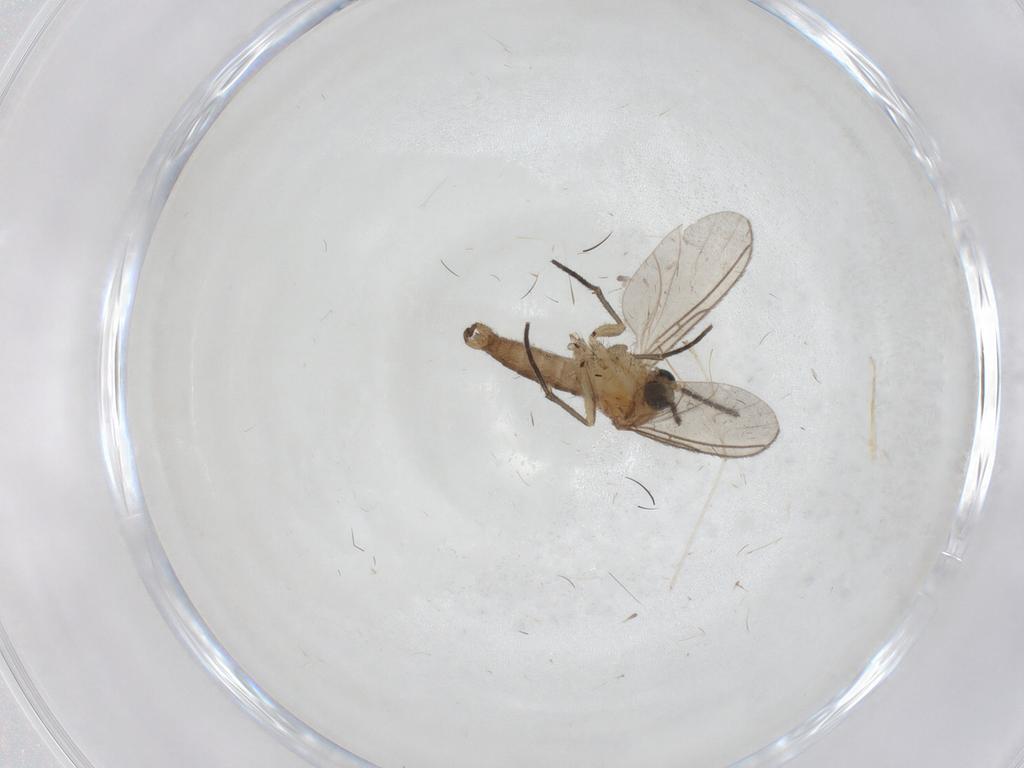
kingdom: Animalia
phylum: Arthropoda
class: Insecta
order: Diptera
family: Sciaridae
